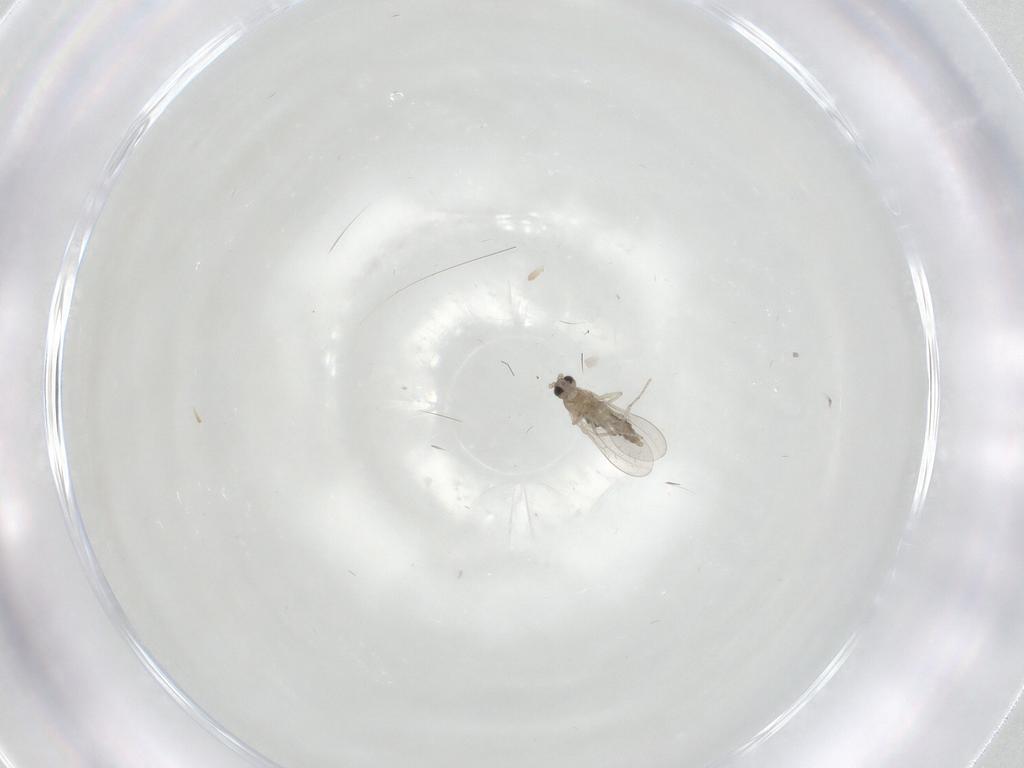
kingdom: Animalia
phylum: Arthropoda
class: Insecta
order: Diptera
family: Cecidomyiidae
